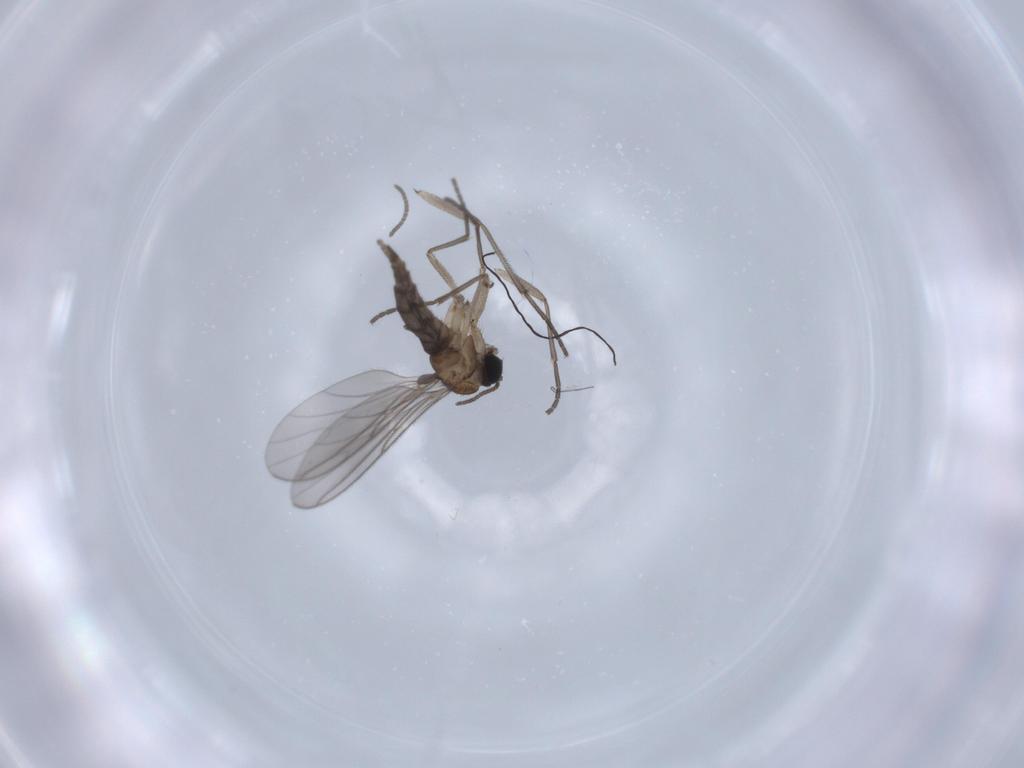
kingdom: Animalia
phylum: Arthropoda
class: Insecta
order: Diptera
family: Sciaridae
